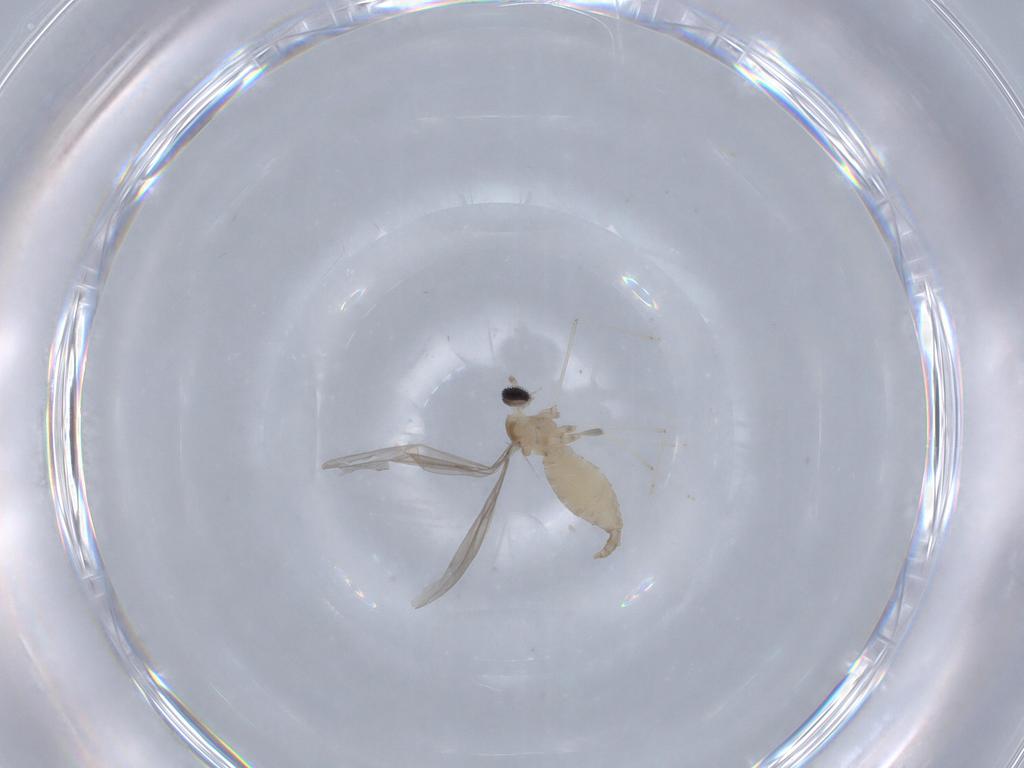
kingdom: Animalia
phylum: Arthropoda
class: Insecta
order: Diptera
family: Cecidomyiidae
